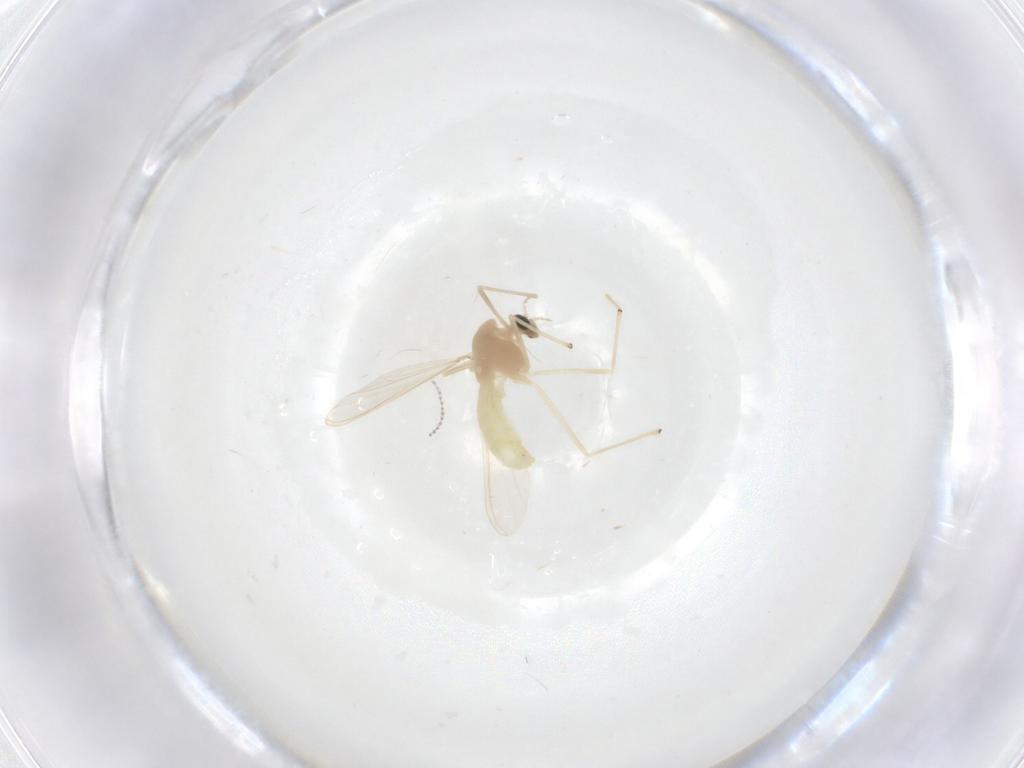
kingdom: Animalia
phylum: Arthropoda
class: Insecta
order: Diptera
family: Chironomidae
